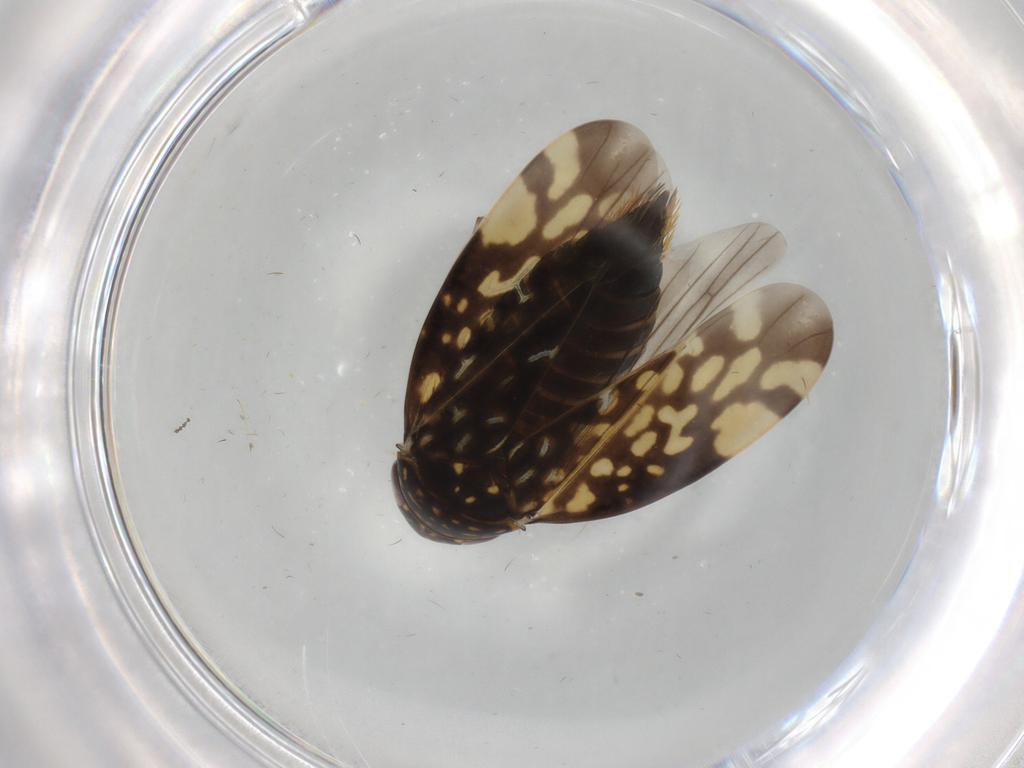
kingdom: Animalia
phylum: Arthropoda
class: Insecta
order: Hemiptera
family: Cicadellidae
